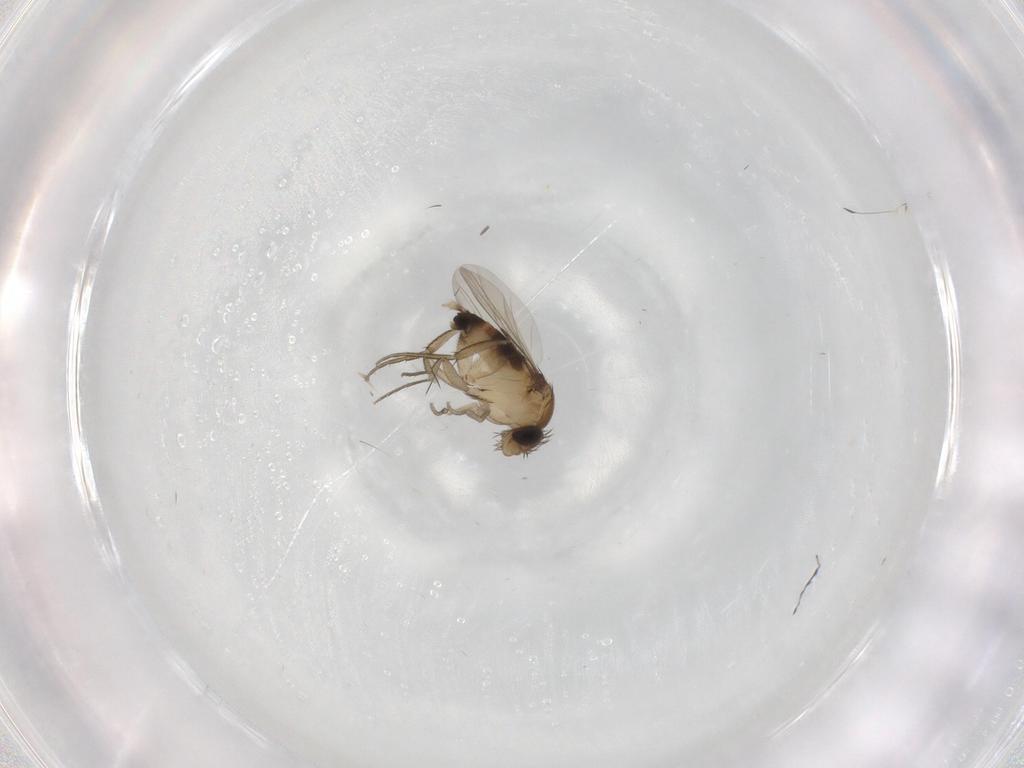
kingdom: Animalia
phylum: Arthropoda
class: Insecta
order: Diptera
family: Phoridae
